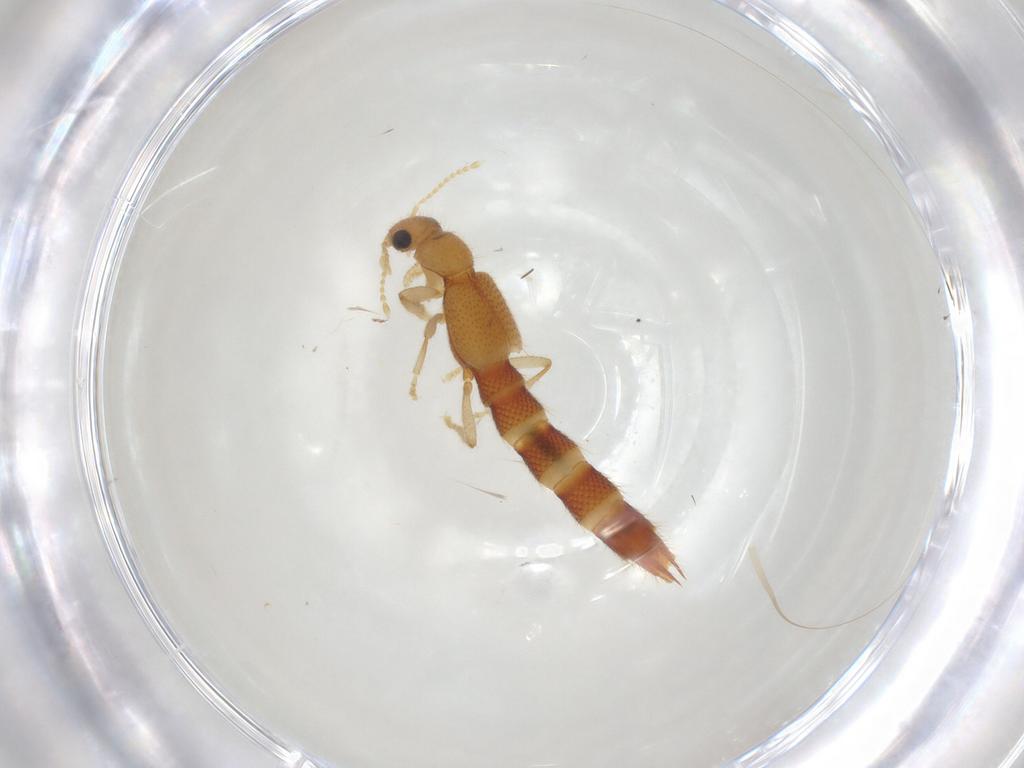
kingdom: Animalia
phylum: Arthropoda
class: Insecta
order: Coleoptera
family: Staphylinidae
